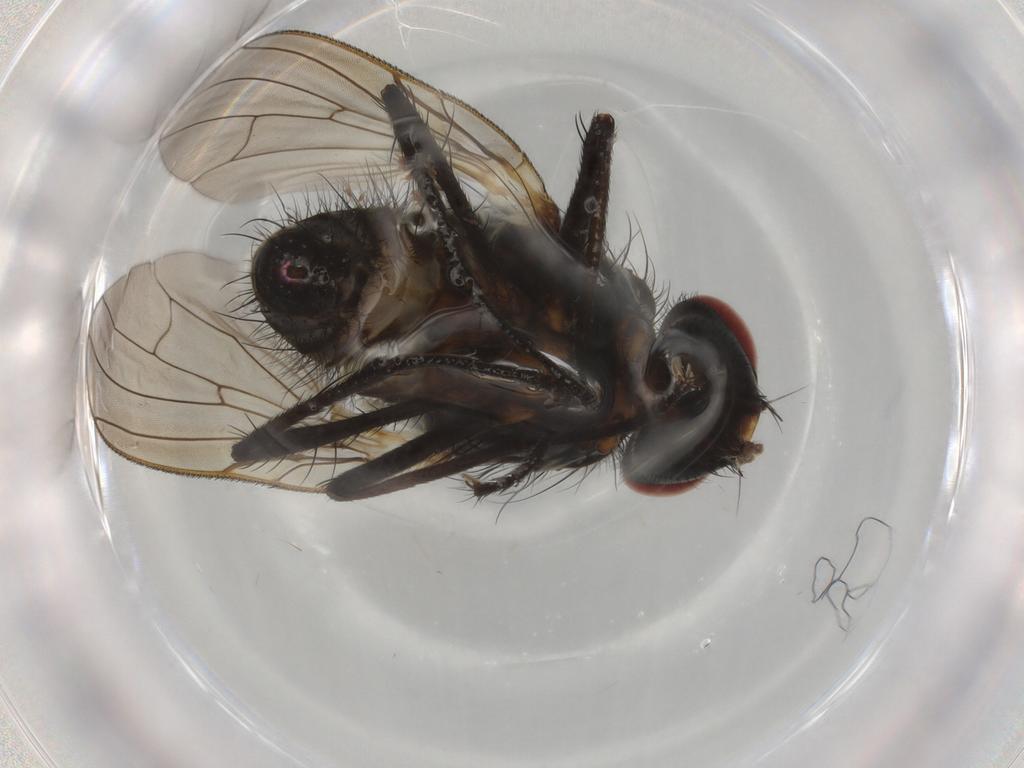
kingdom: Animalia
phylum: Arthropoda
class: Insecta
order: Diptera
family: Anthomyiidae
